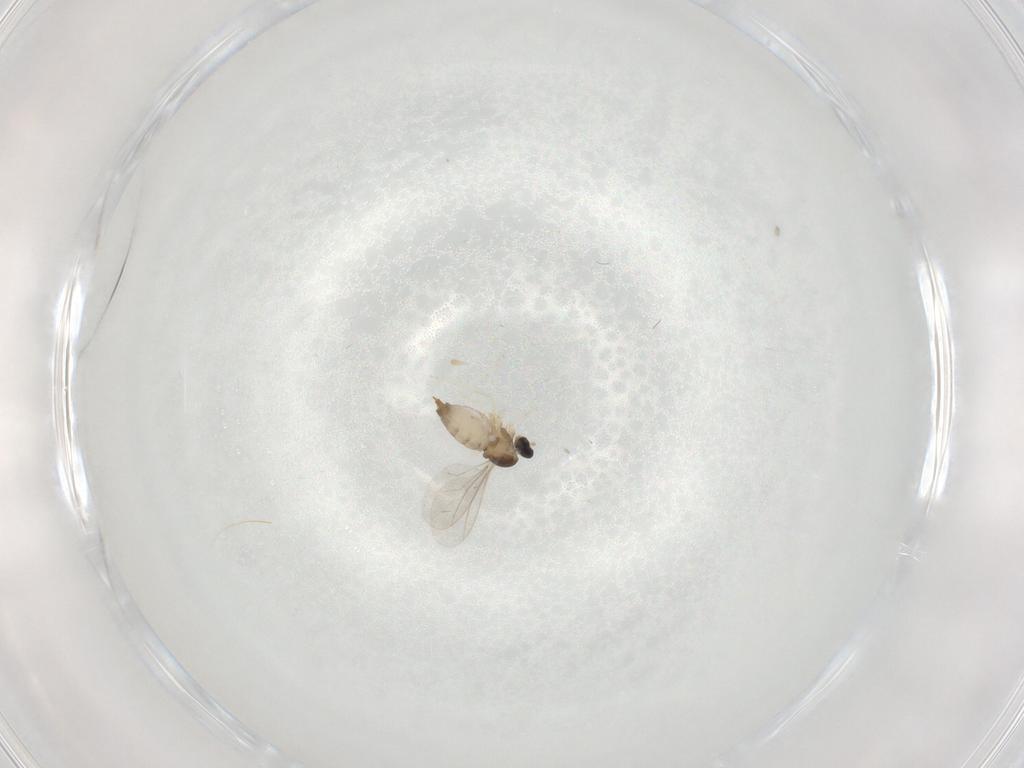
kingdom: Animalia
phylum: Arthropoda
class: Insecta
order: Diptera
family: Cecidomyiidae
